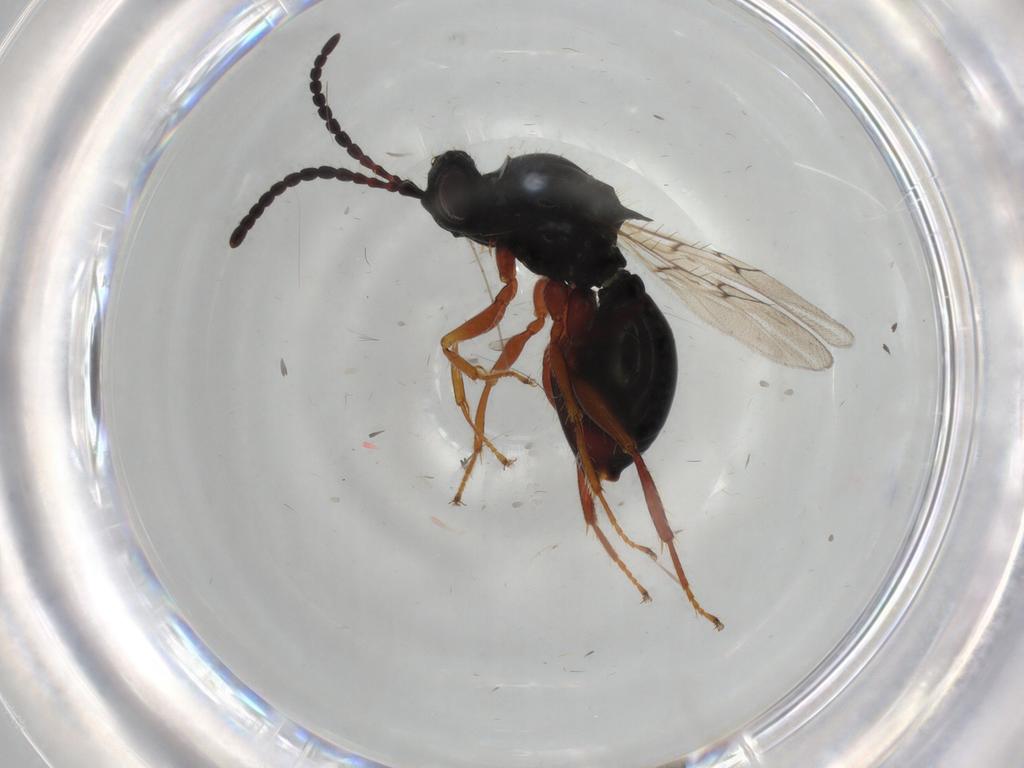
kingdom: Animalia
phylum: Arthropoda
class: Insecta
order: Hymenoptera
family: Figitidae
